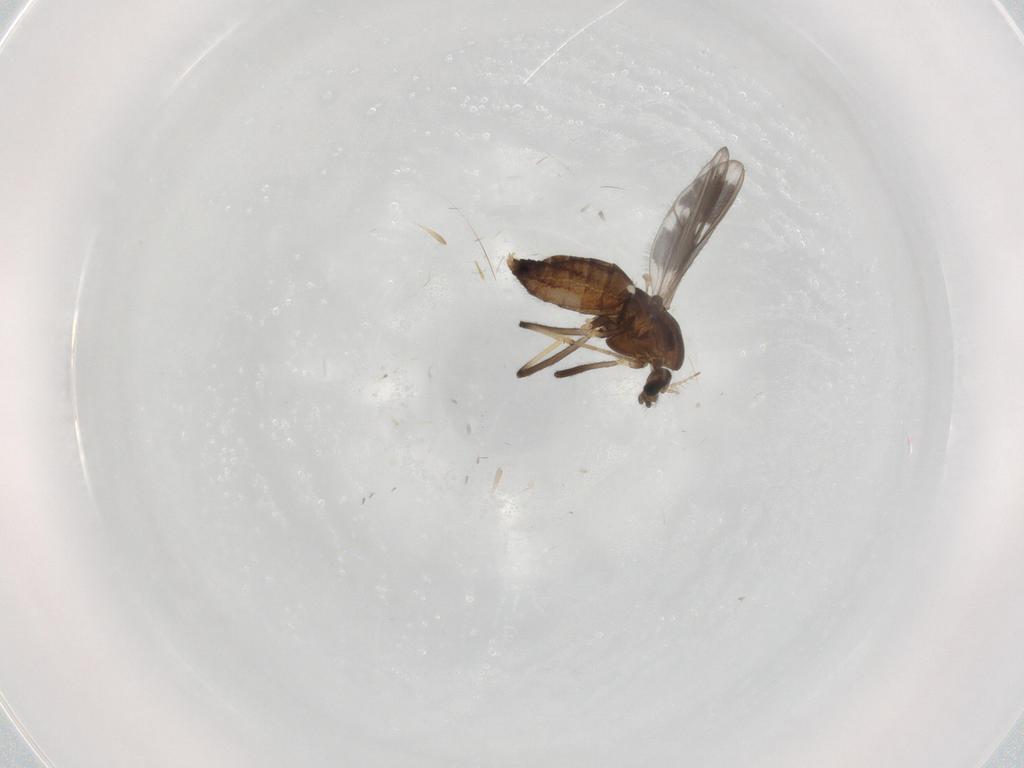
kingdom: Animalia
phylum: Arthropoda
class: Insecta
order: Diptera
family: Chironomidae
